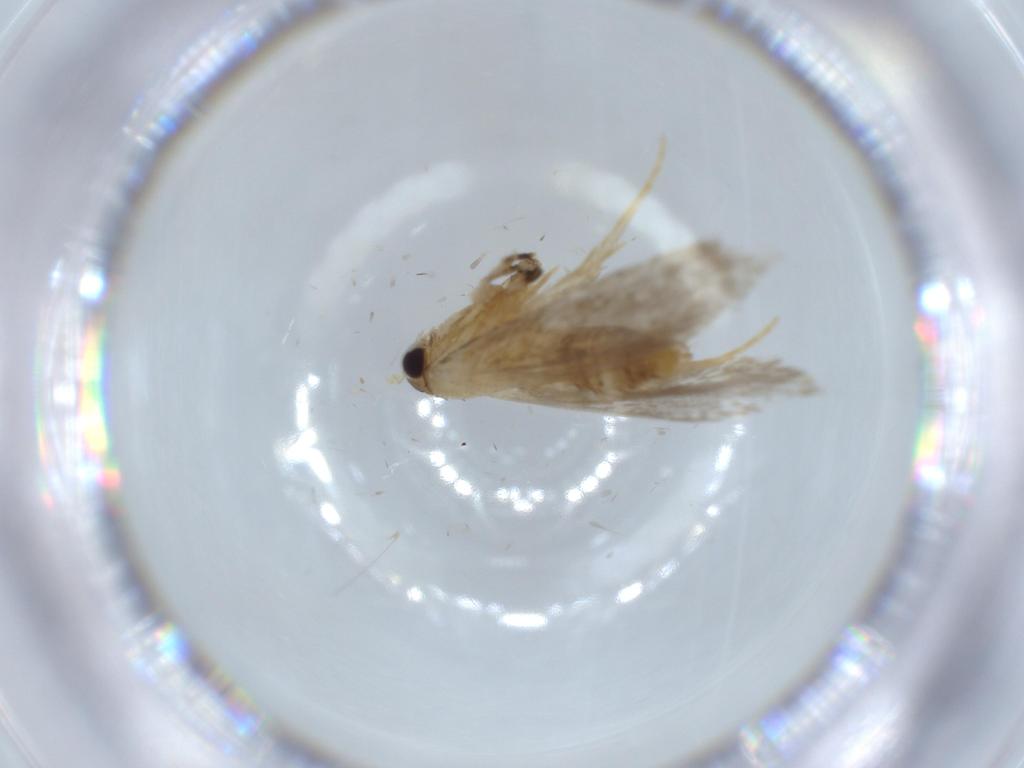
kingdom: Animalia
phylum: Arthropoda
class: Insecta
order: Lepidoptera
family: Tineidae
